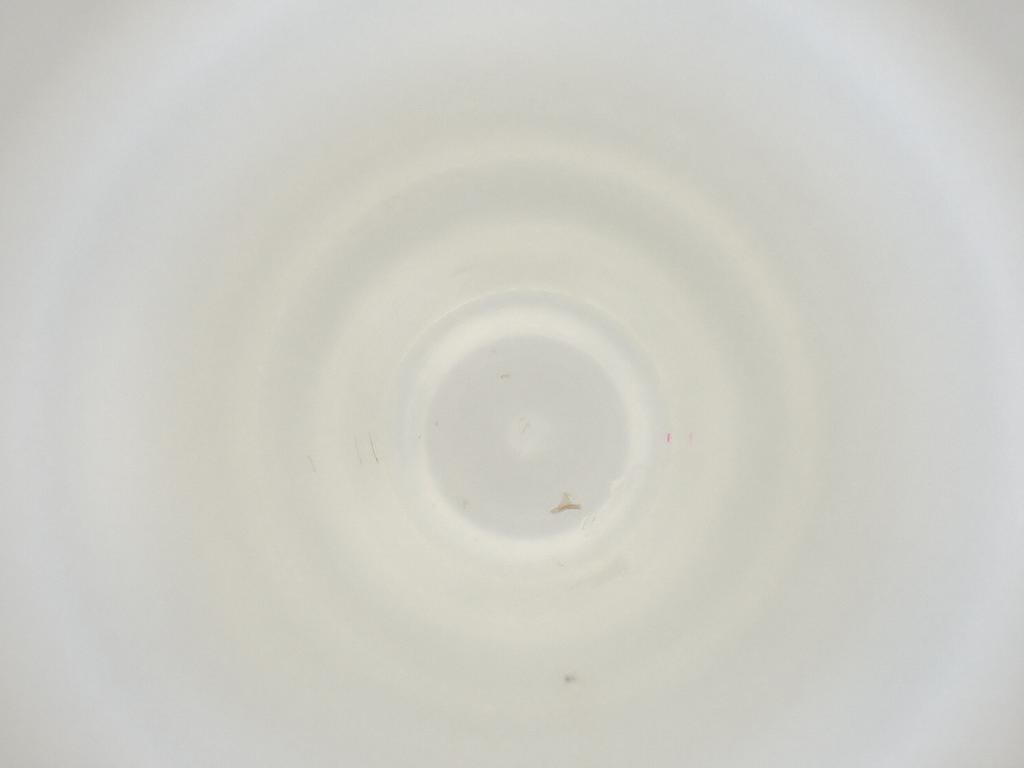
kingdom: Animalia
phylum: Arthropoda
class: Insecta
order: Diptera
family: Cecidomyiidae
